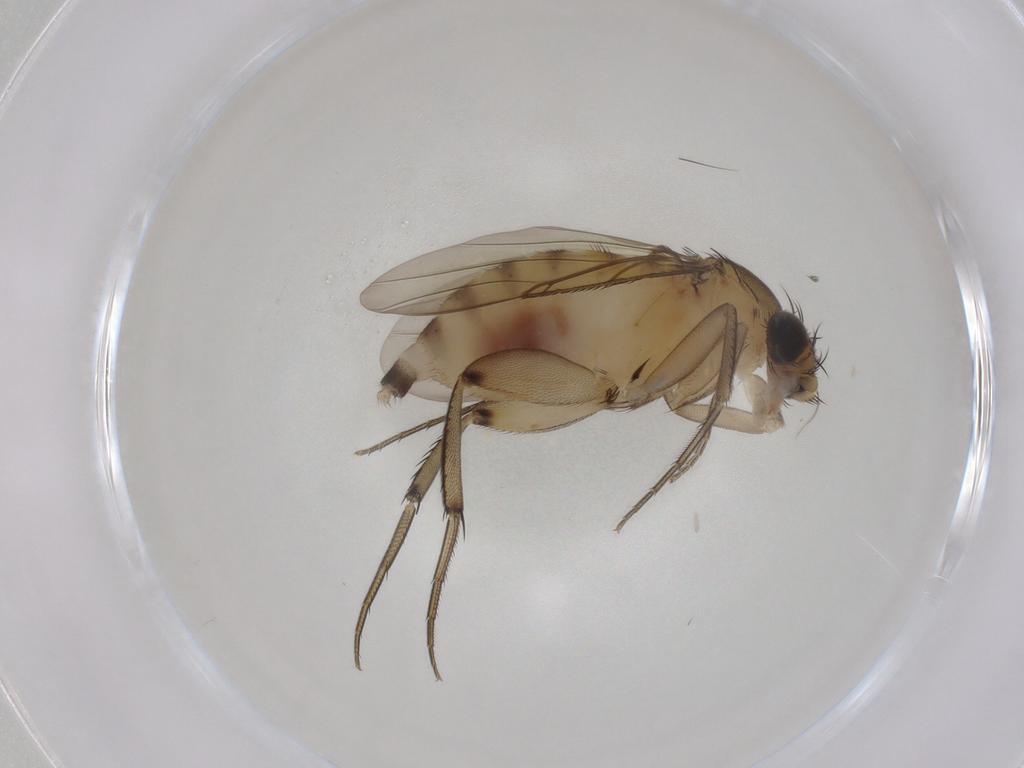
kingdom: Animalia
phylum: Arthropoda
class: Insecta
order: Diptera
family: Phoridae
